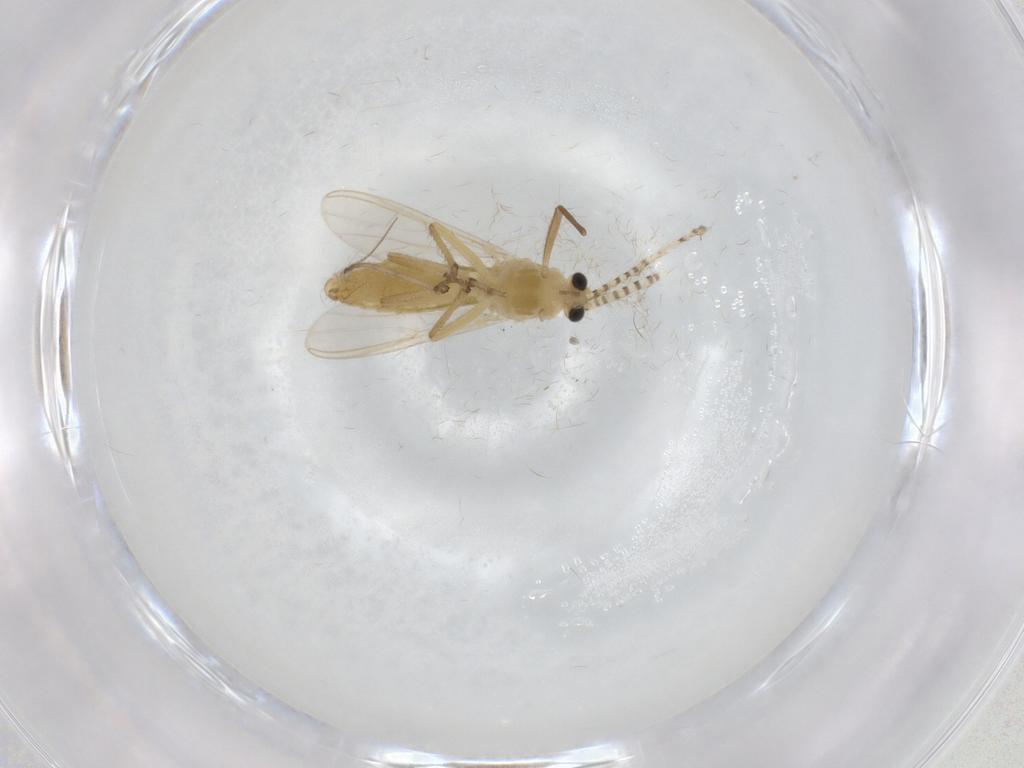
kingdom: Animalia
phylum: Arthropoda
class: Insecta
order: Diptera
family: Chironomidae
